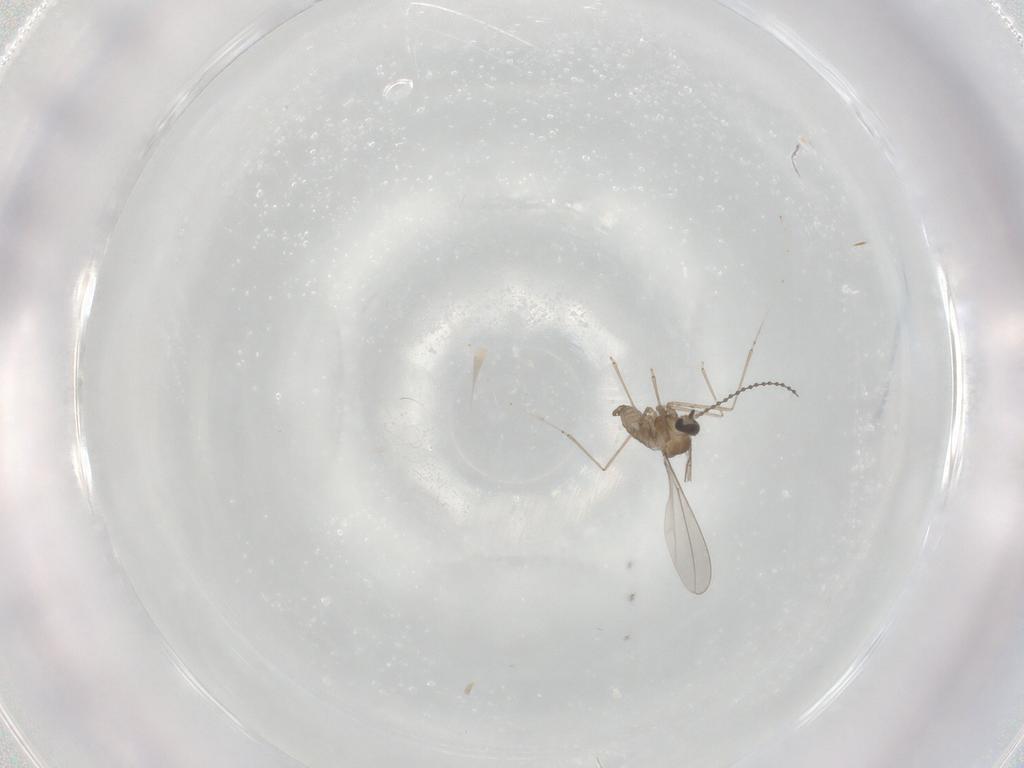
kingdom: Animalia
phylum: Arthropoda
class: Insecta
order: Diptera
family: Cecidomyiidae
